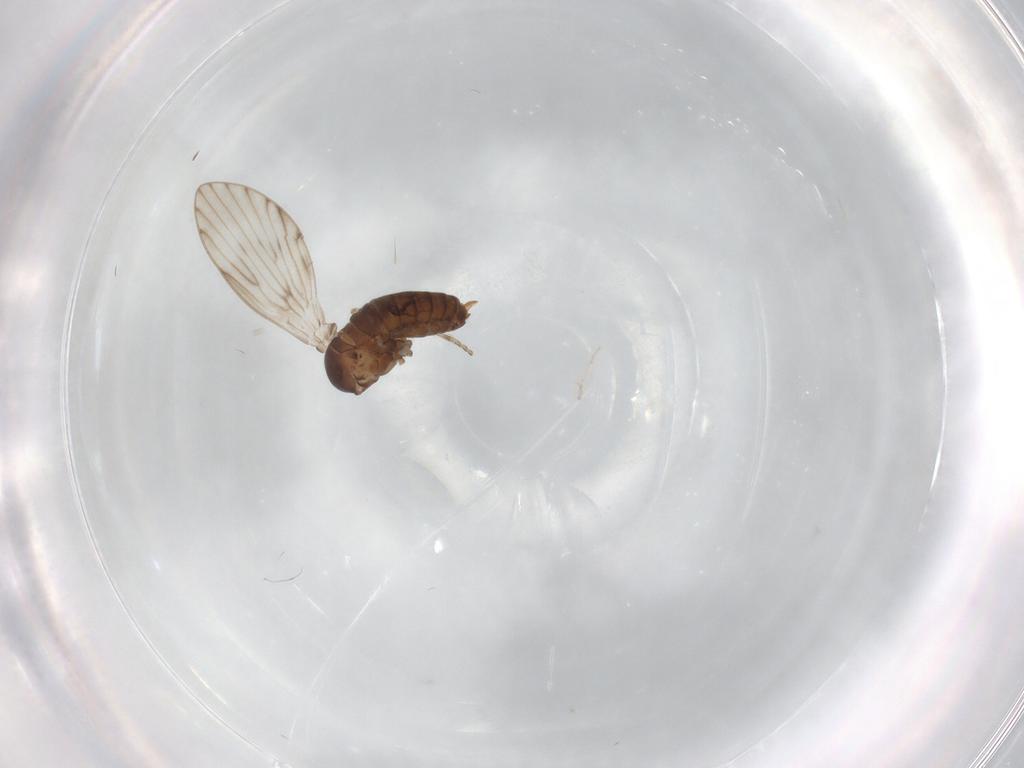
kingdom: Animalia
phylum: Arthropoda
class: Insecta
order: Diptera
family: Psychodidae
